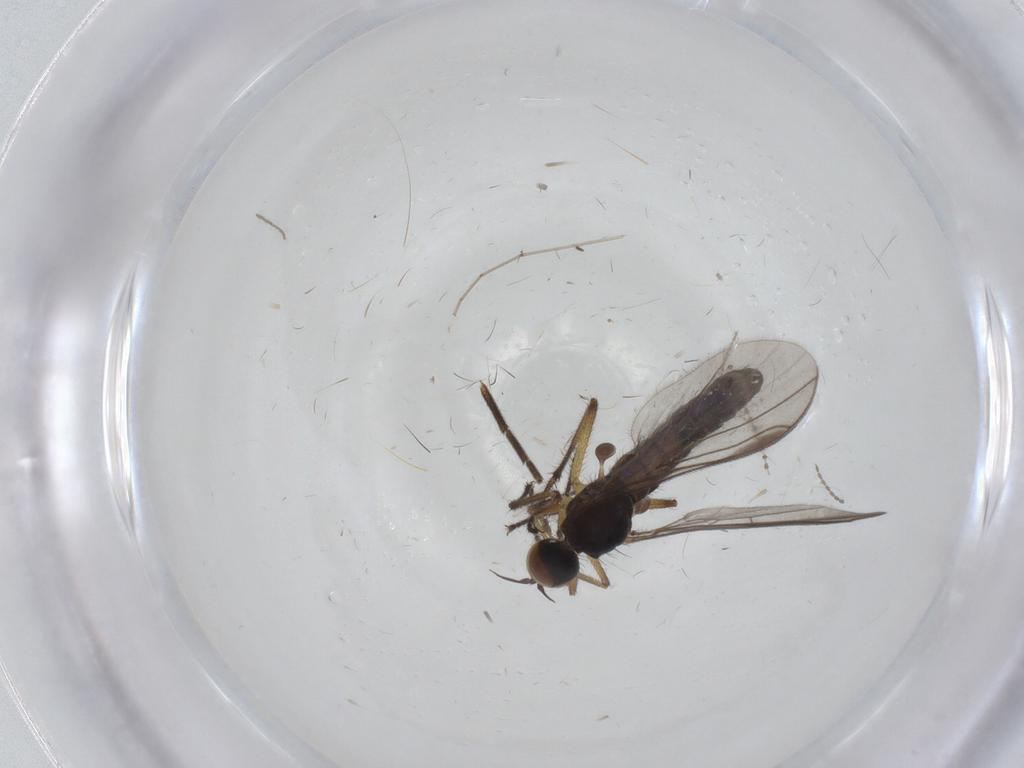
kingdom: Animalia
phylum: Arthropoda
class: Insecta
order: Diptera
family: Empididae
